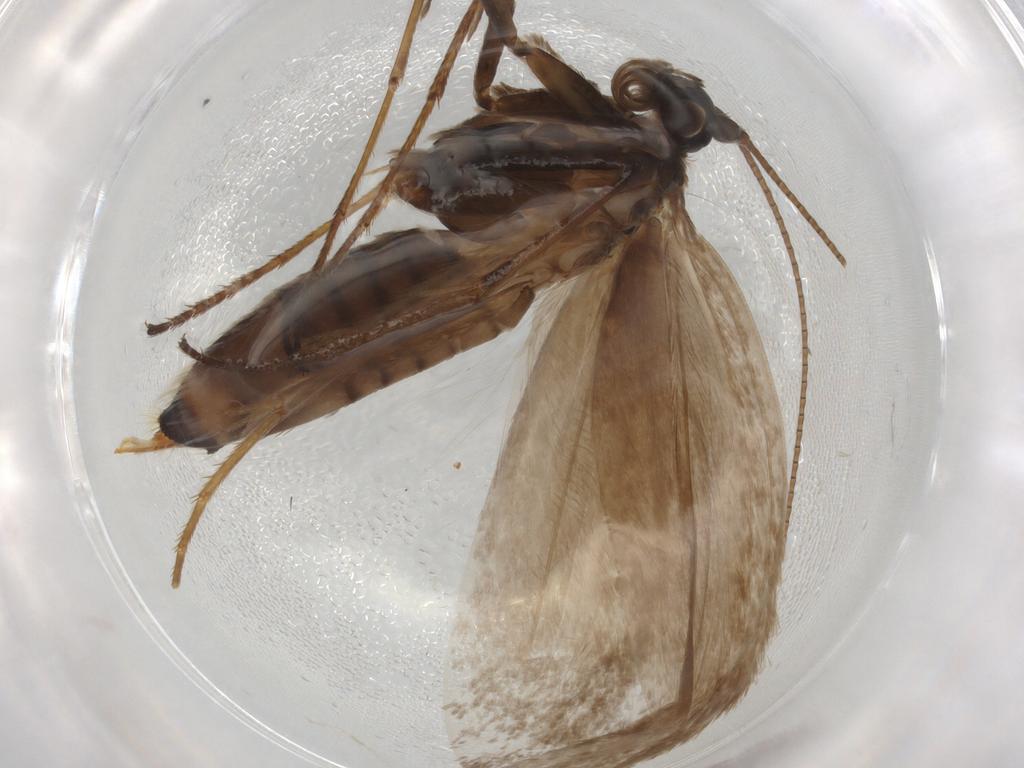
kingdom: Animalia
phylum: Arthropoda
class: Insecta
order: Lepidoptera
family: Adelidae
